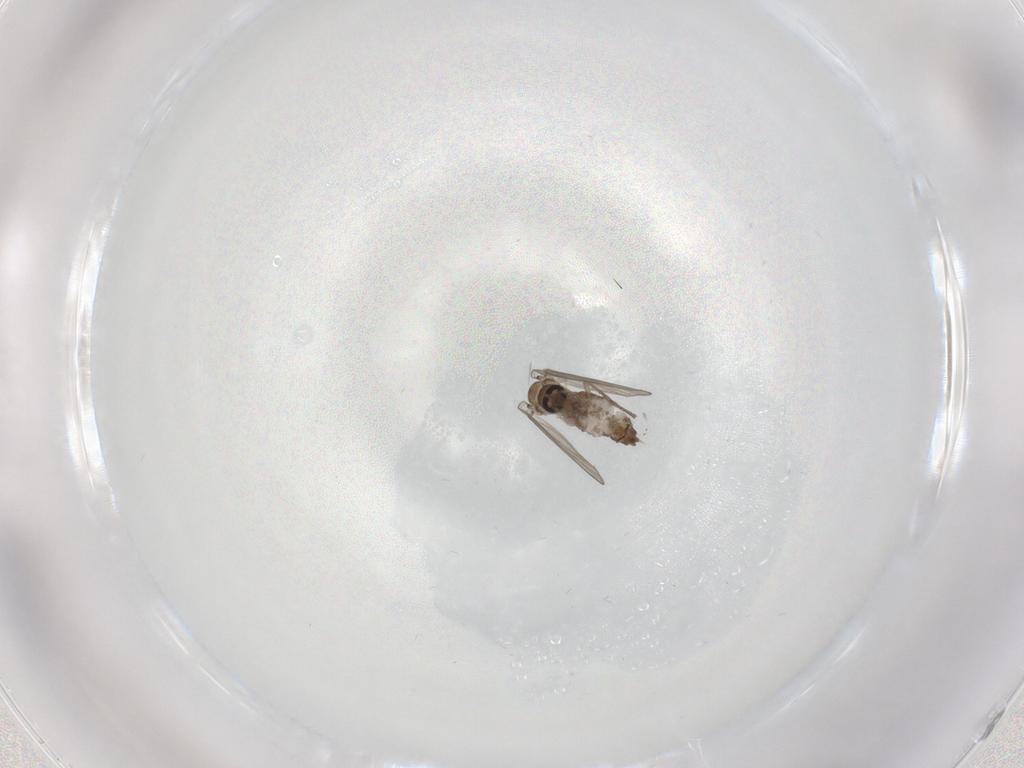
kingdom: Animalia
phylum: Arthropoda
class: Insecta
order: Diptera
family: Psychodidae
